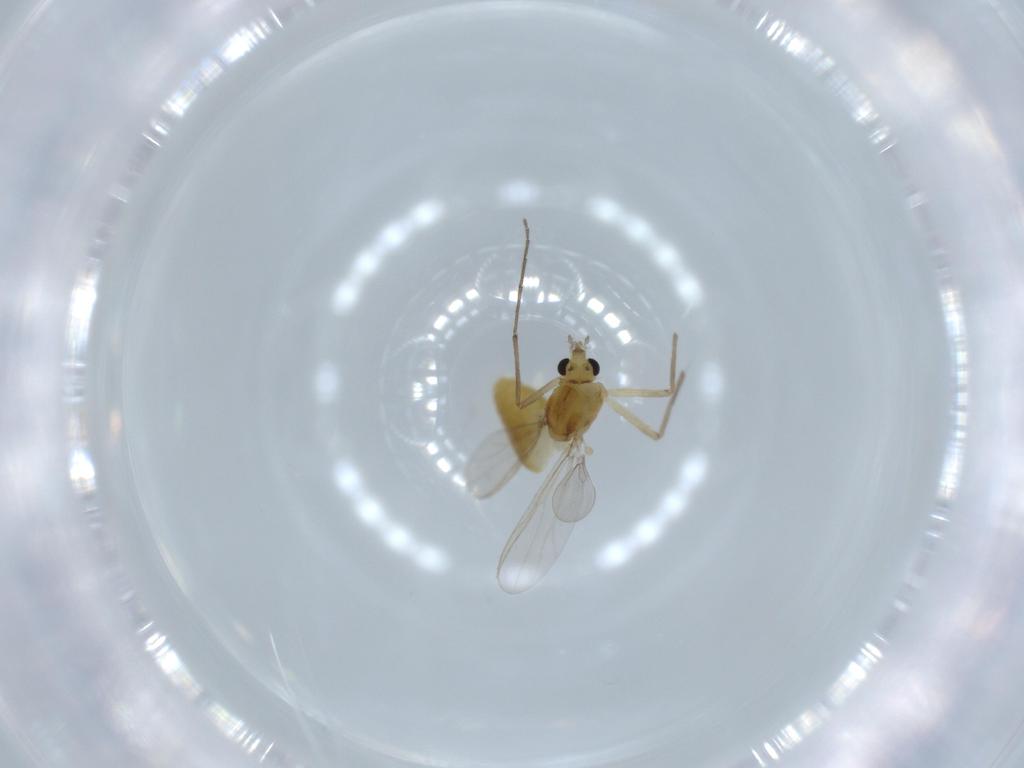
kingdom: Animalia
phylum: Arthropoda
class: Insecta
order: Diptera
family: Chironomidae
